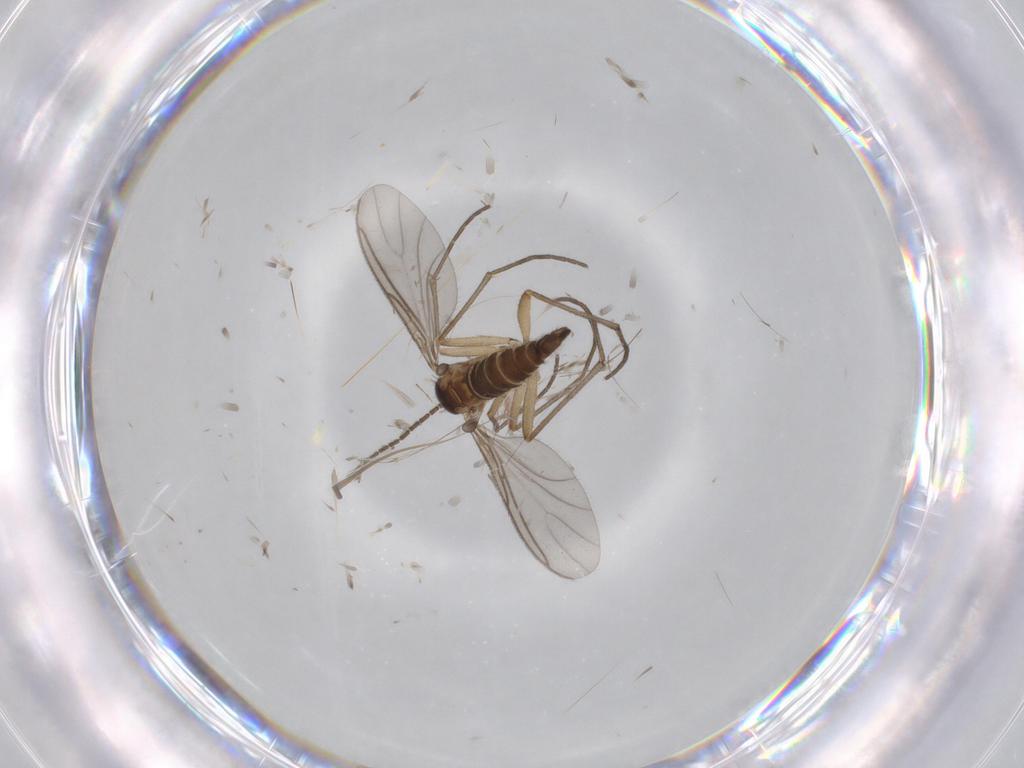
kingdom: Animalia
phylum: Arthropoda
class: Insecta
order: Diptera
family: Sciaridae
